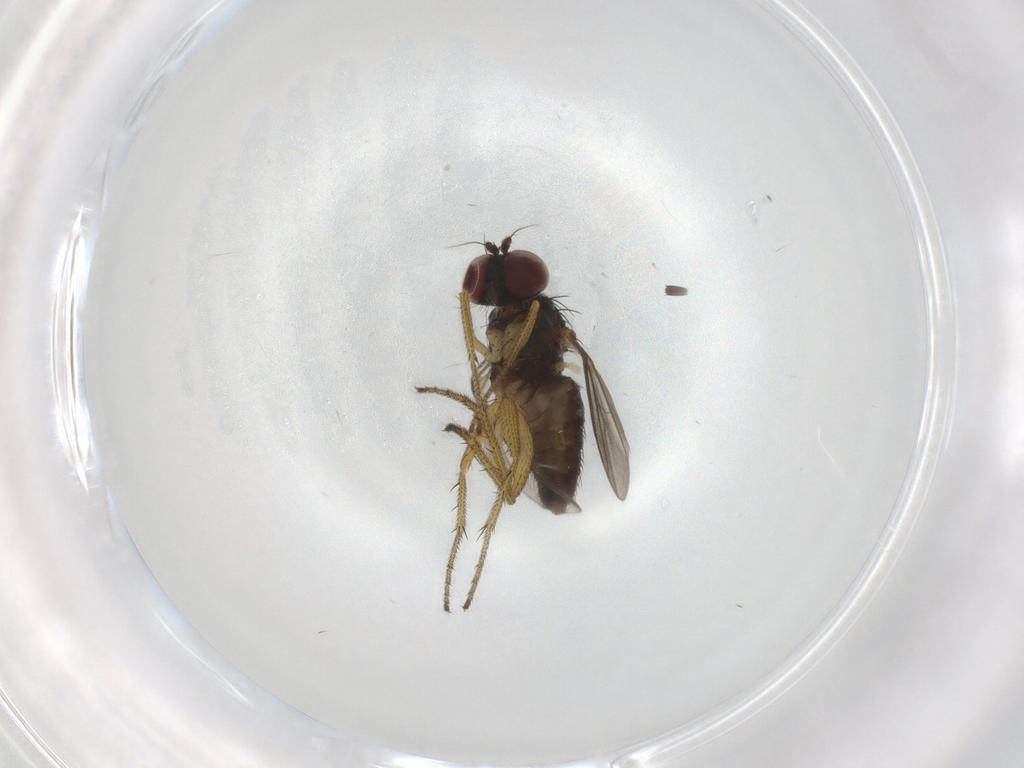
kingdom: Animalia
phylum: Arthropoda
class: Insecta
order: Diptera
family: Dolichopodidae
